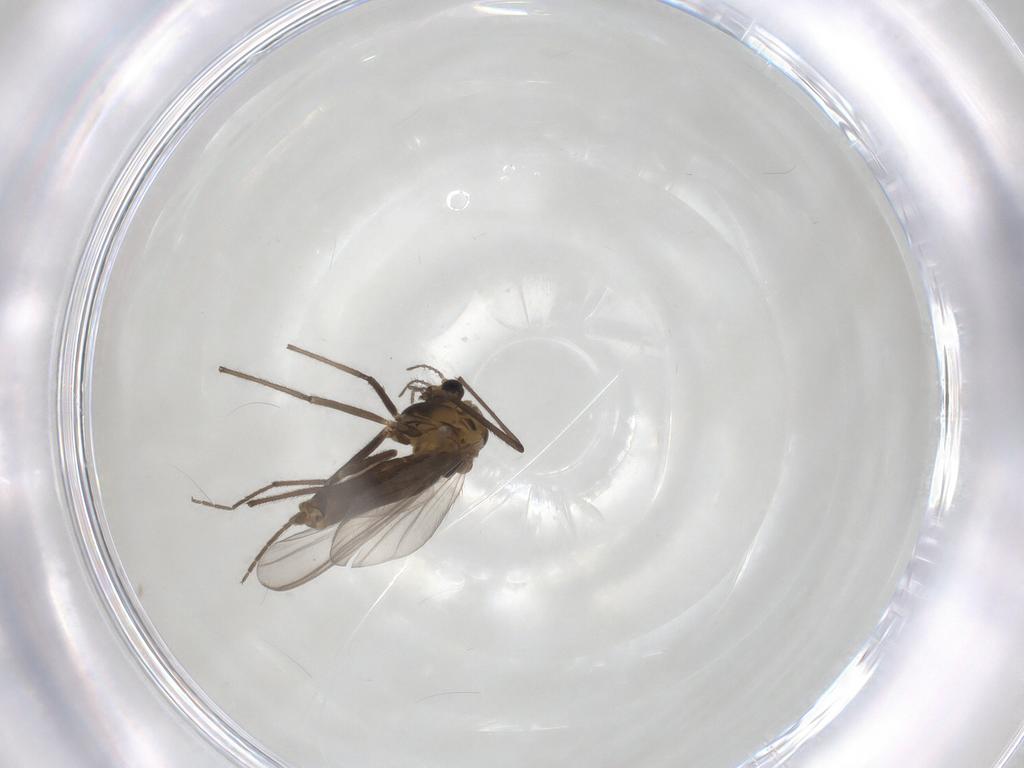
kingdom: Animalia
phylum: Arthropoda
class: Insecta
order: Diptera
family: Chironomidae
